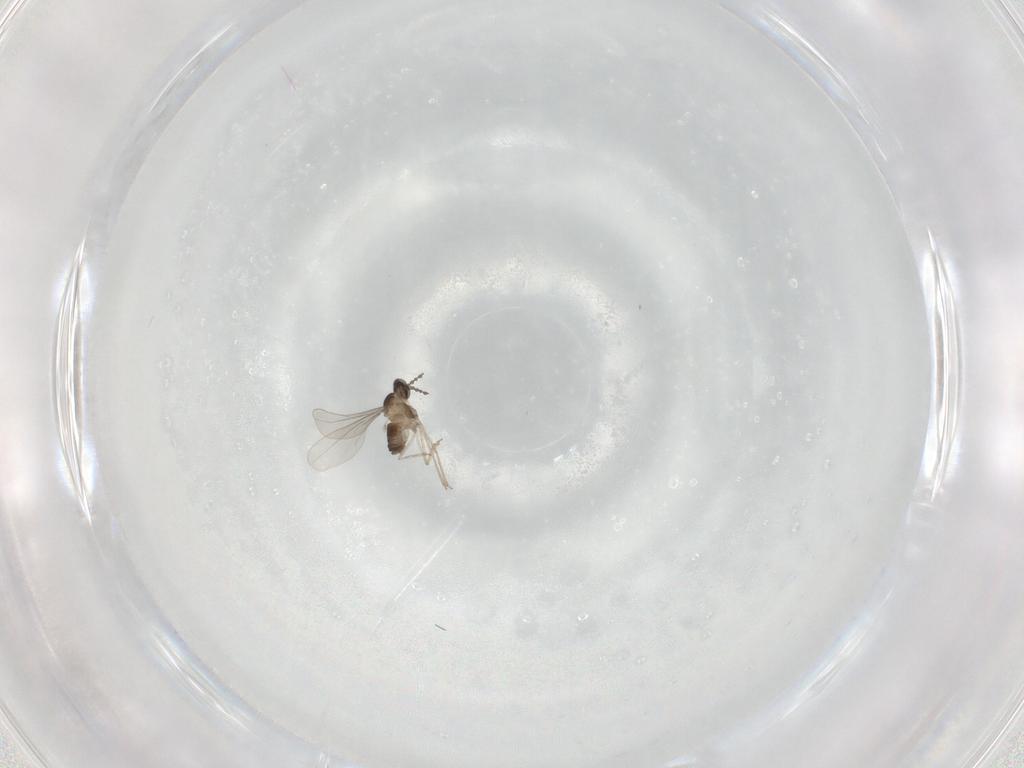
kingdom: Animalia
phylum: Arthropoda
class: Insecta
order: Diptera
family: Cecidomyiidae
